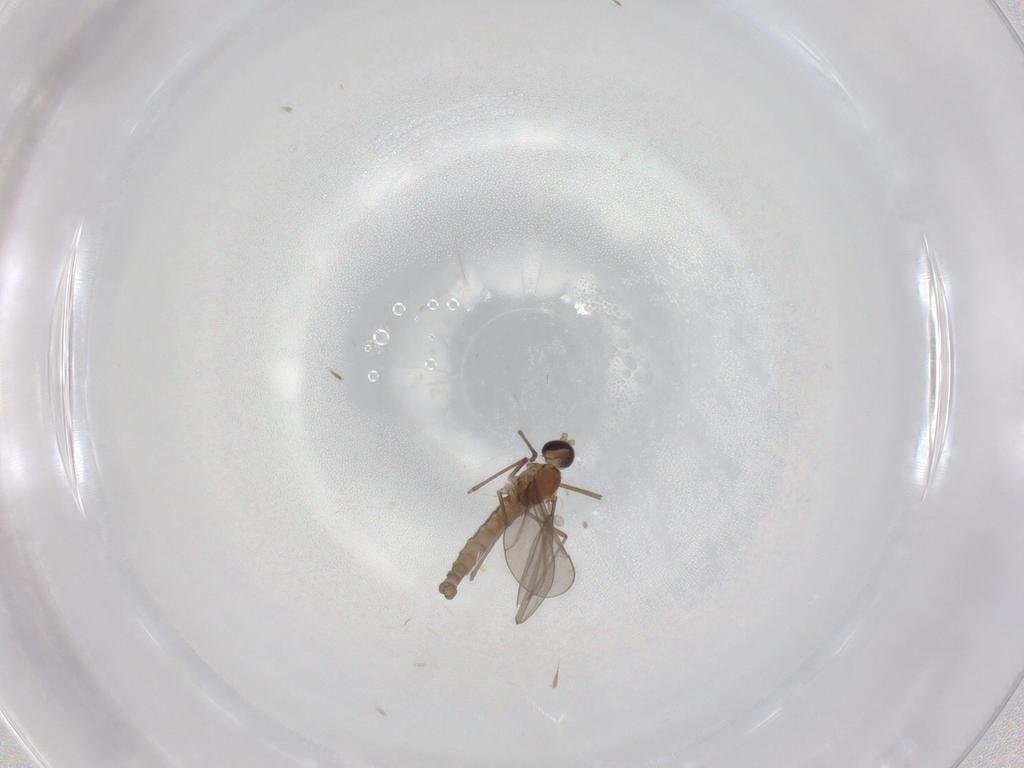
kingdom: Animalia
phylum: Arthropoda
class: Insecta
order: Diptera
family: Cecidomyiidae
